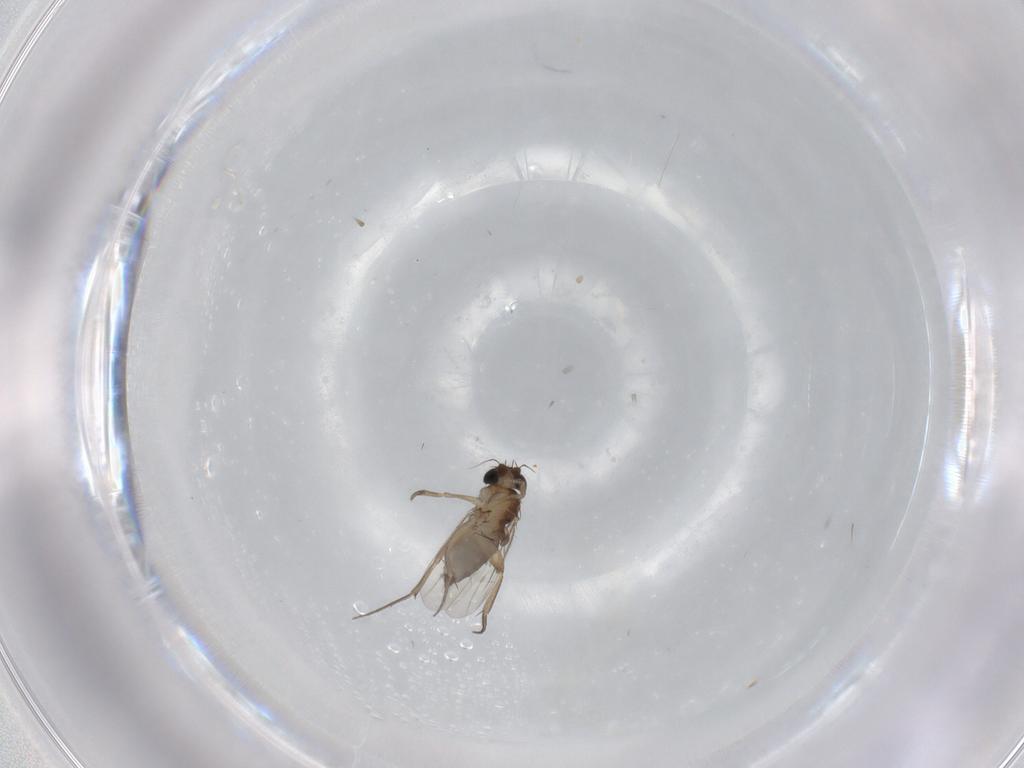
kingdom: Animalia
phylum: Arthropoda
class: Insecta
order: Diptera
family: Phoridae
